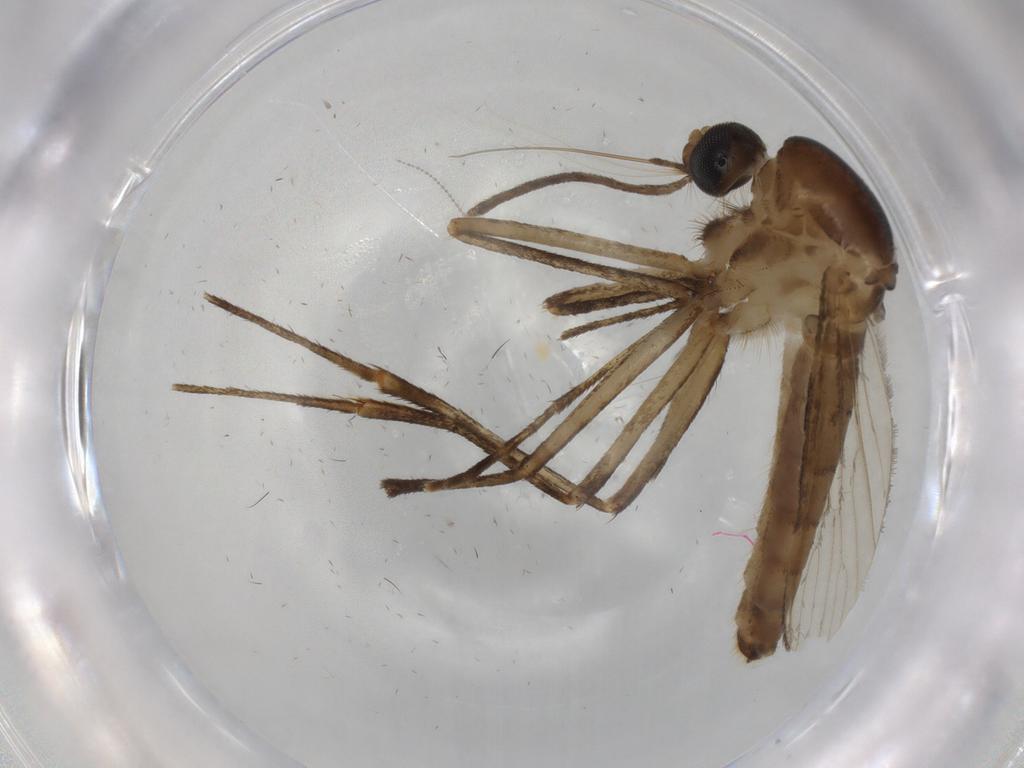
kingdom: Animalia
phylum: Arthropoda
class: Insecta
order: Diptera
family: Culicidae
